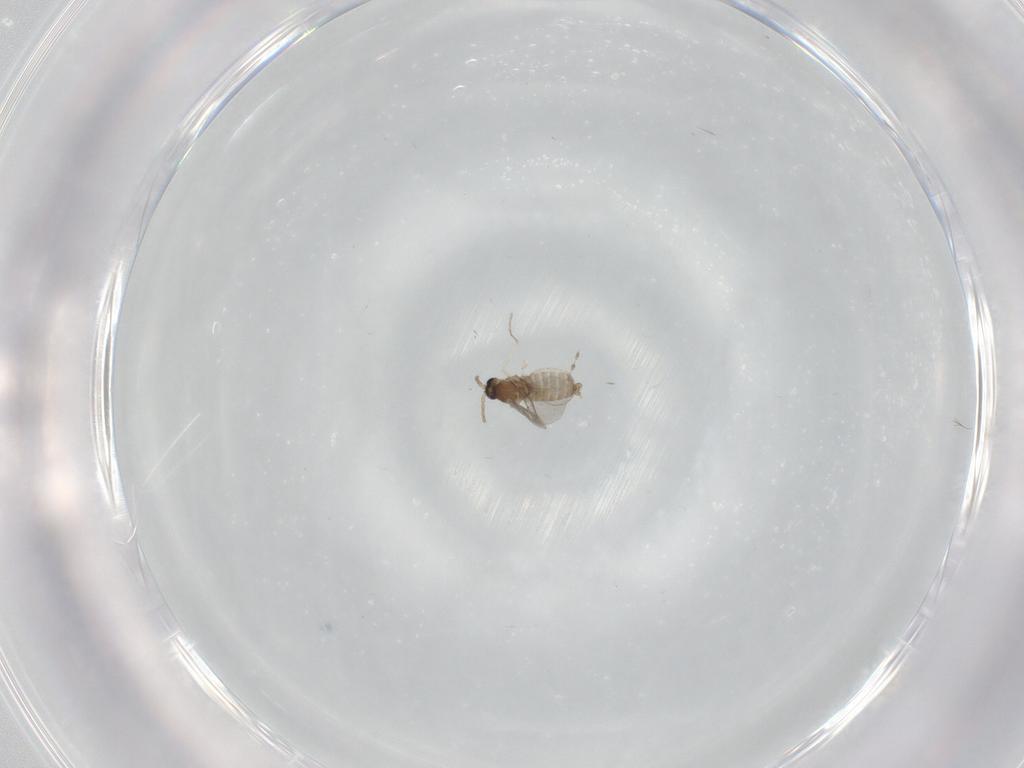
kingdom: Animalia
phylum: Arthropoda
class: Insecta
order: Diptera
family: Cecidomyiidae
